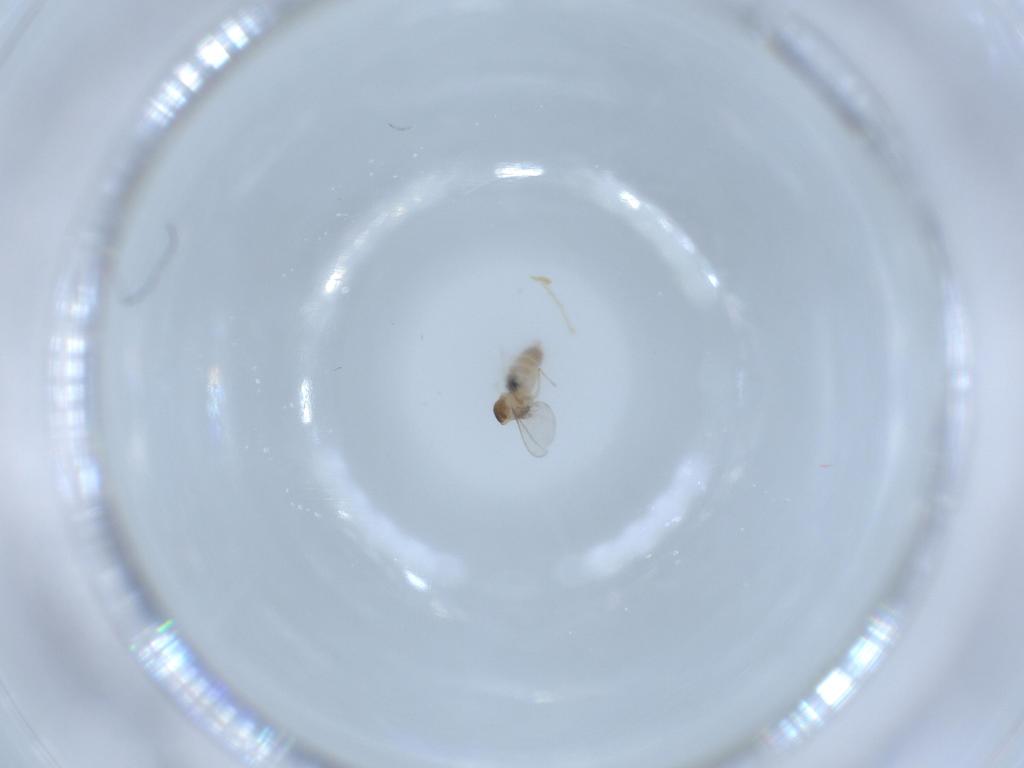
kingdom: Animalia
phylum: Arthropoda
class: Insecta
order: Diptera
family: Cecidomyiidae
